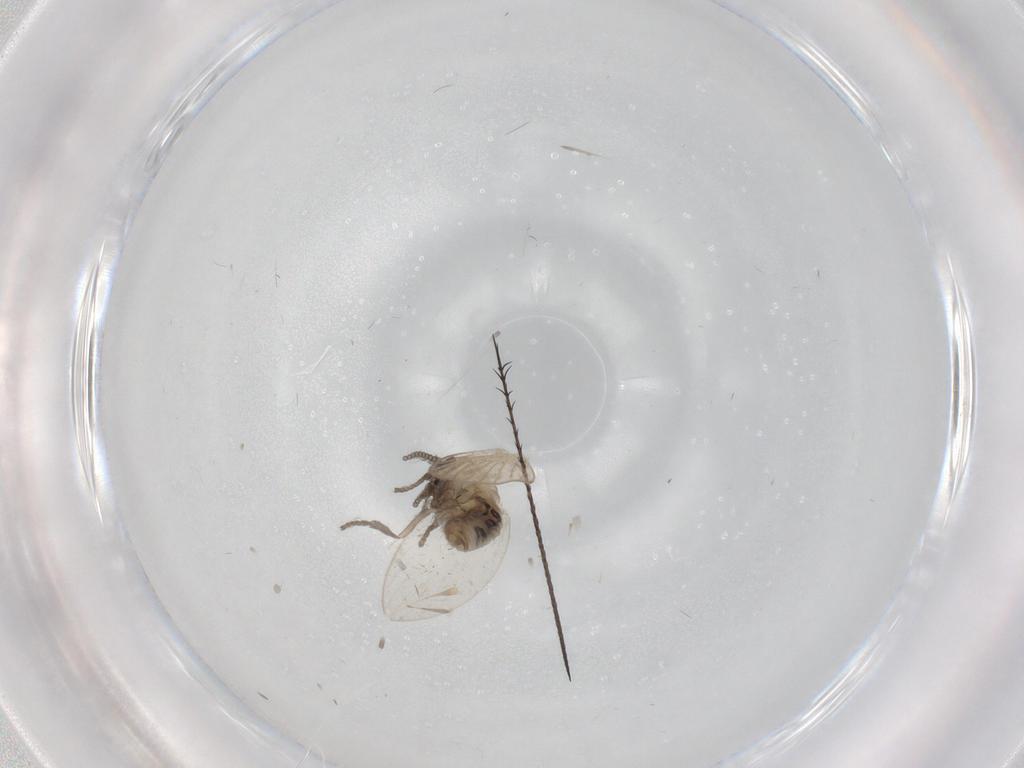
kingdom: Animalia
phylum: Arthropoda
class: Insecta
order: Diptera
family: Psychodidae
